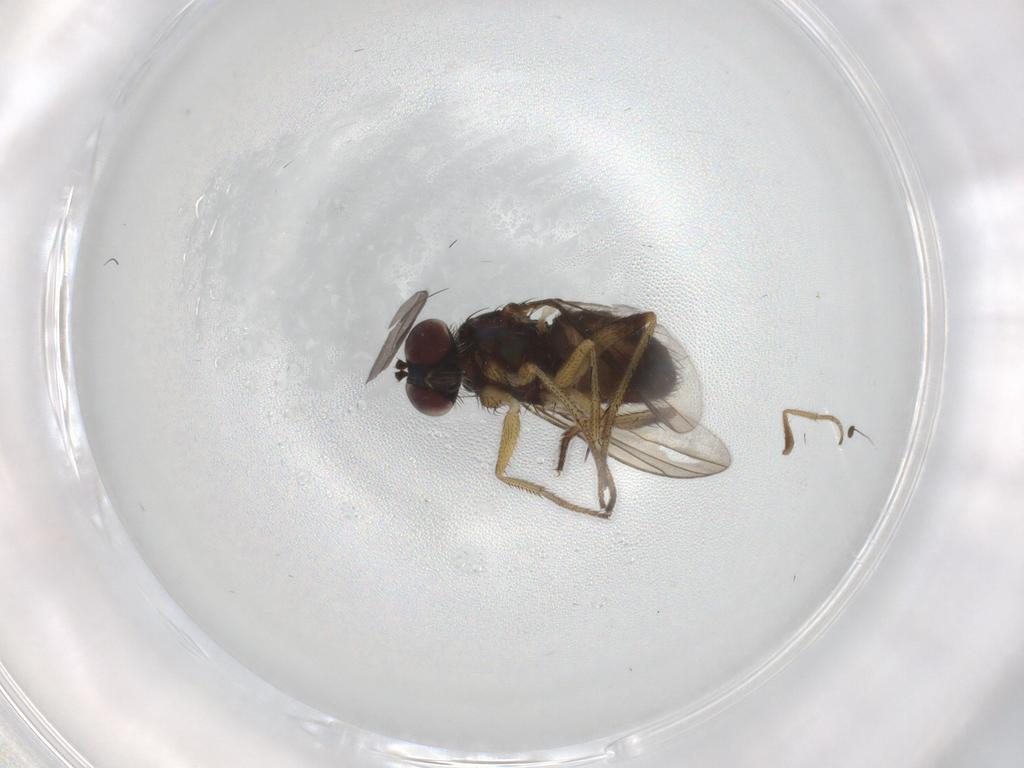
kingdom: Animalia
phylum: Arthropoda
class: Insecta
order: Diptera
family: Dolichopodidae
